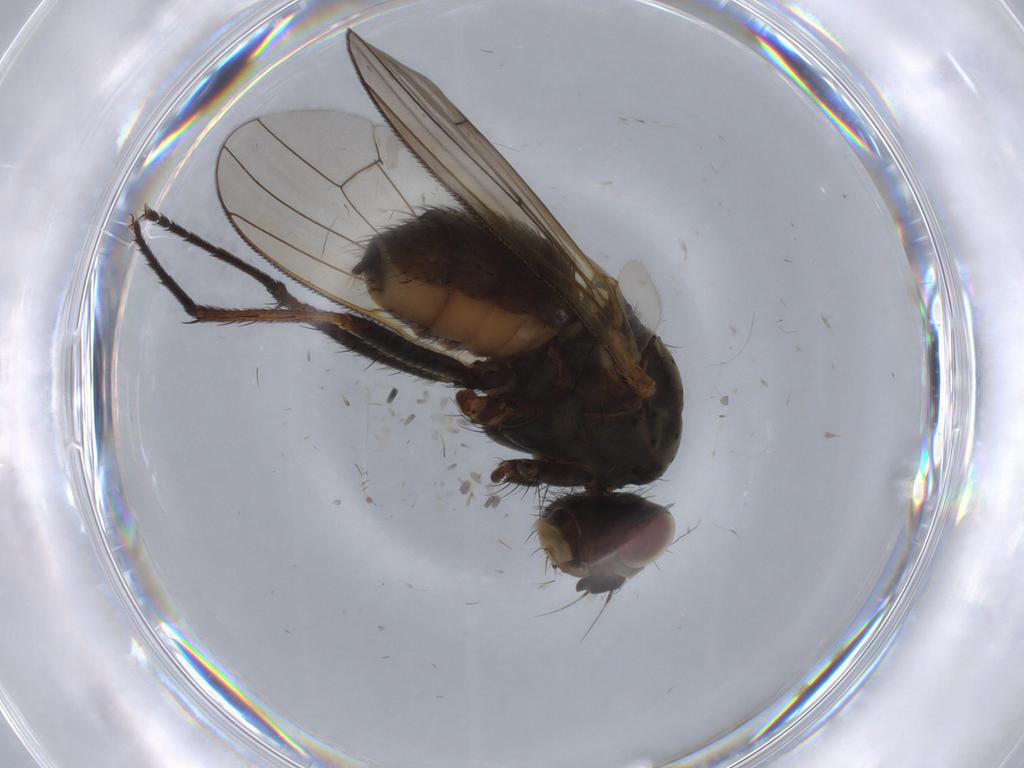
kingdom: Animalia
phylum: Arthropoda
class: Insecta
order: Diptera
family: Anthomyiidae
